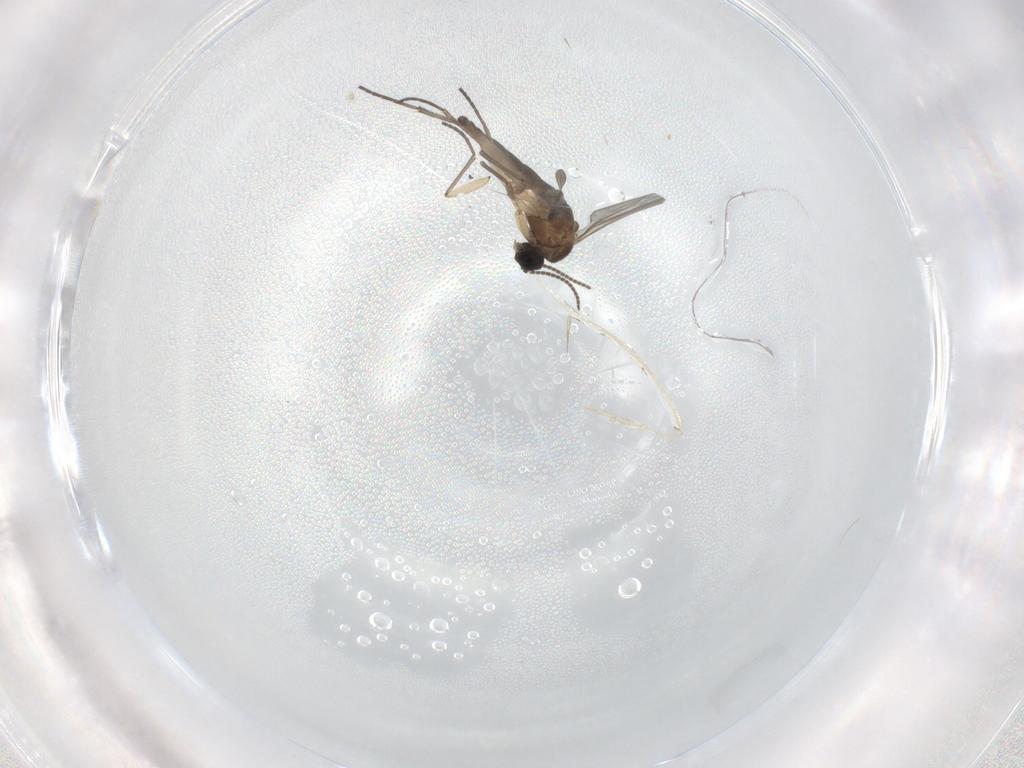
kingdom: Animalia
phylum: Arthropoda
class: Insecta
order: Diptera
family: Sciaridae
